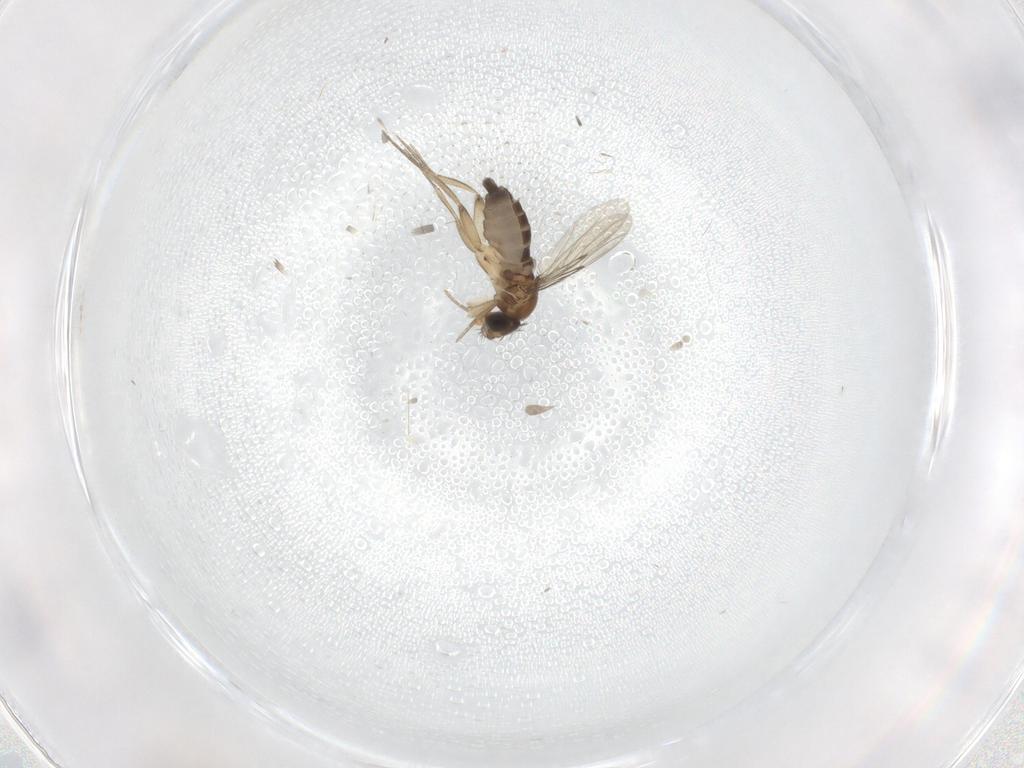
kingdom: Animalia
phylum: Arthropoda
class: Insecta
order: Diptera
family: Phoridae
